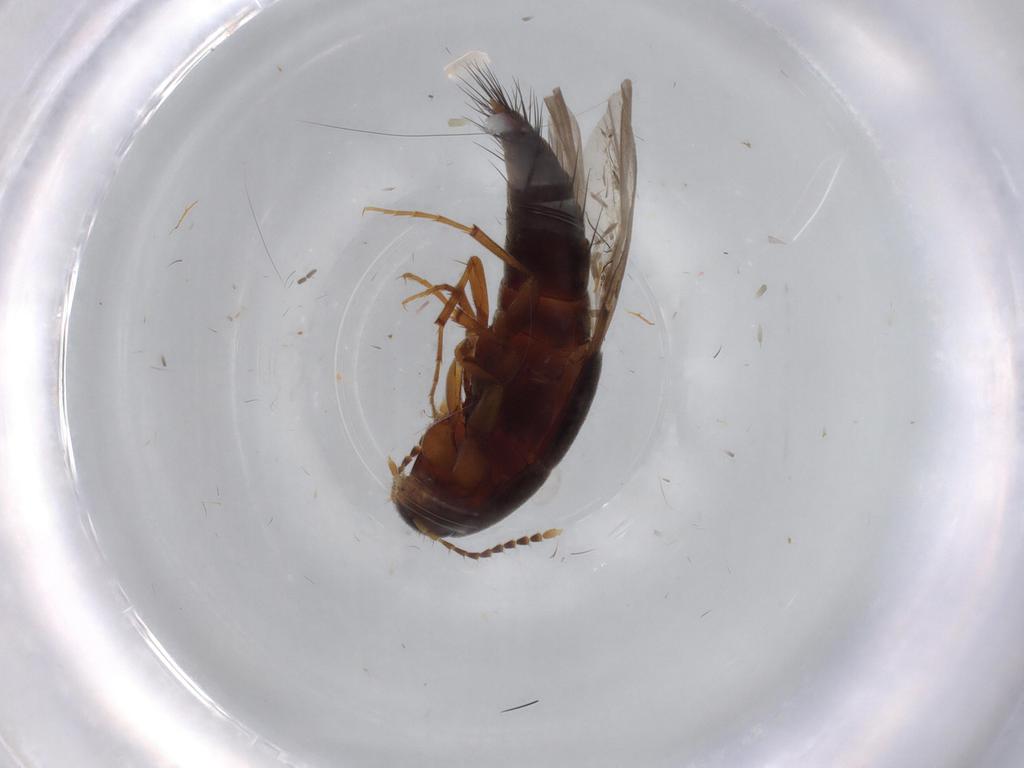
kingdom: Animalia
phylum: Arthropoda
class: Insecta
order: Coleoptera
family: Staphylinidae
